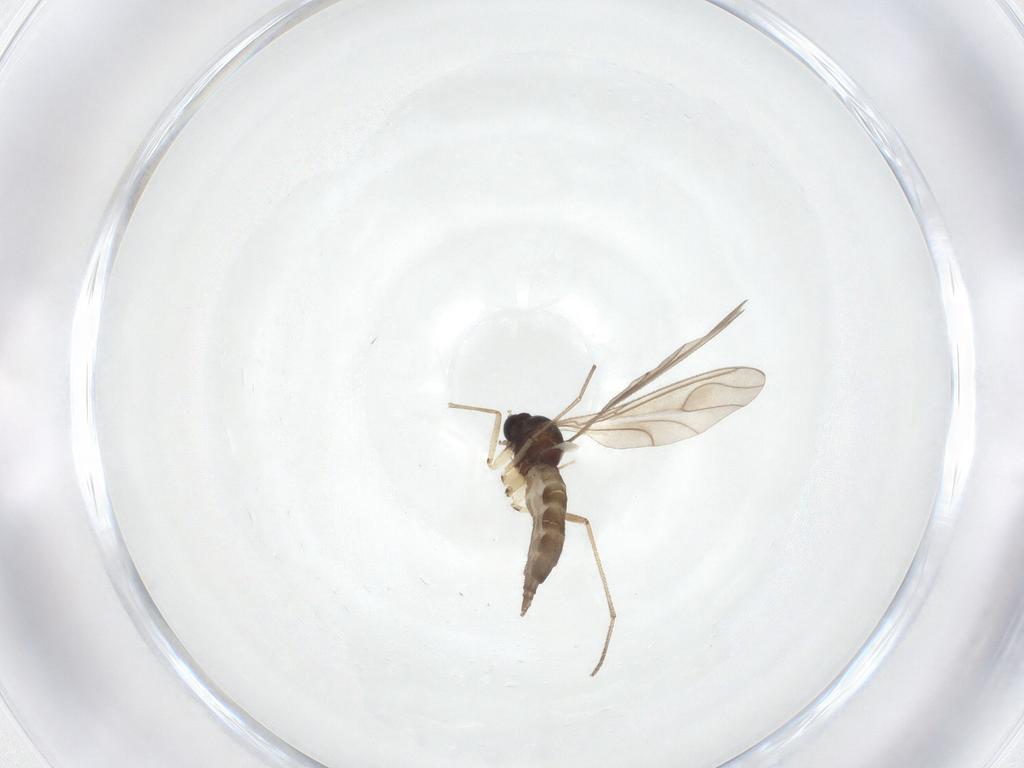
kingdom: Animalia
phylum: Arthropoda
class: Insecta
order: Diptera
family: Sciaridae
